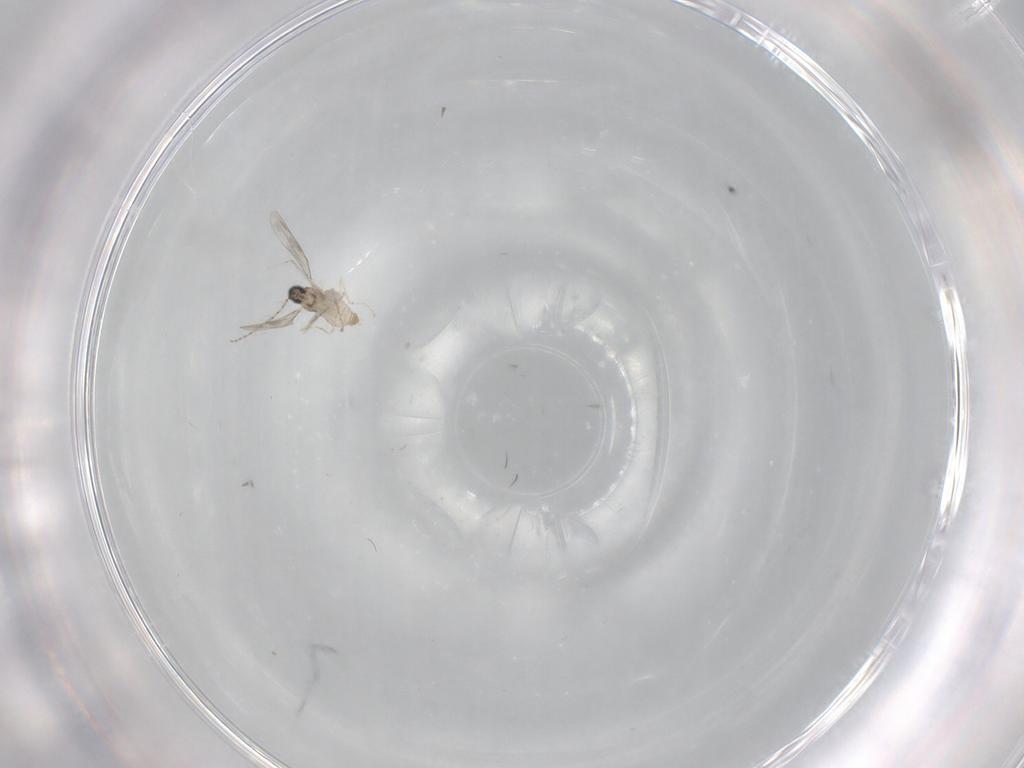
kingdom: Animalia
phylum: Arthropoda
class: Insecta
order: Diptera
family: Cecidomyiidae
